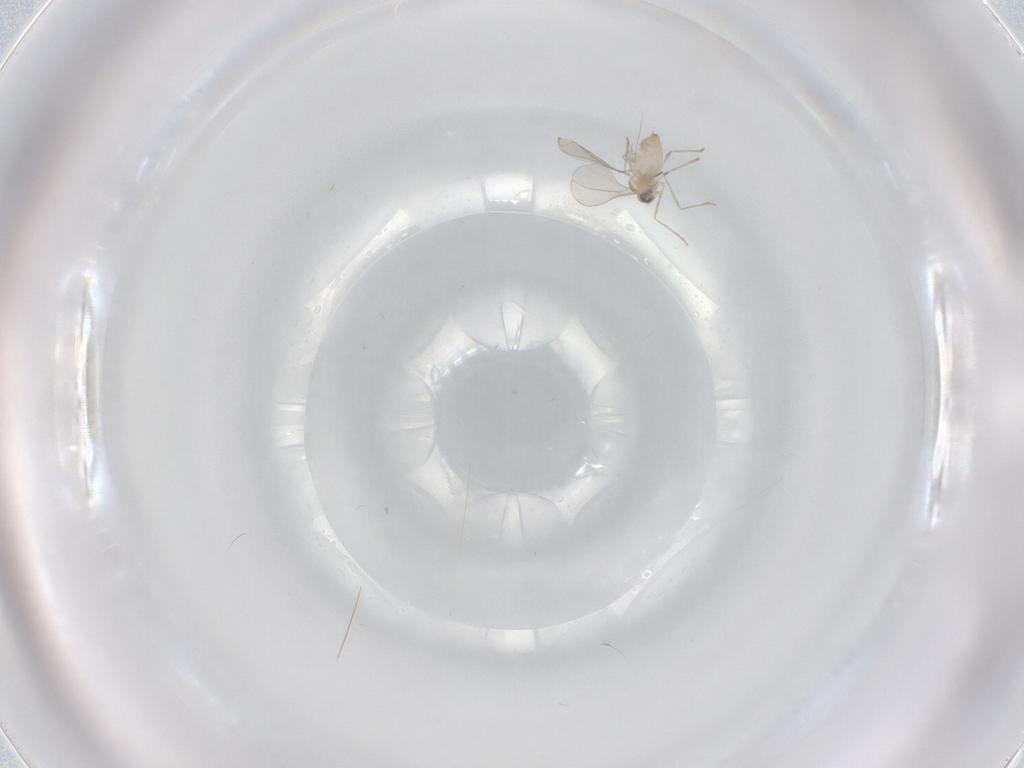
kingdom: Animalia
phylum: Arthropoda
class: Insecta
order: Diptera
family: Cecidomyiidae
